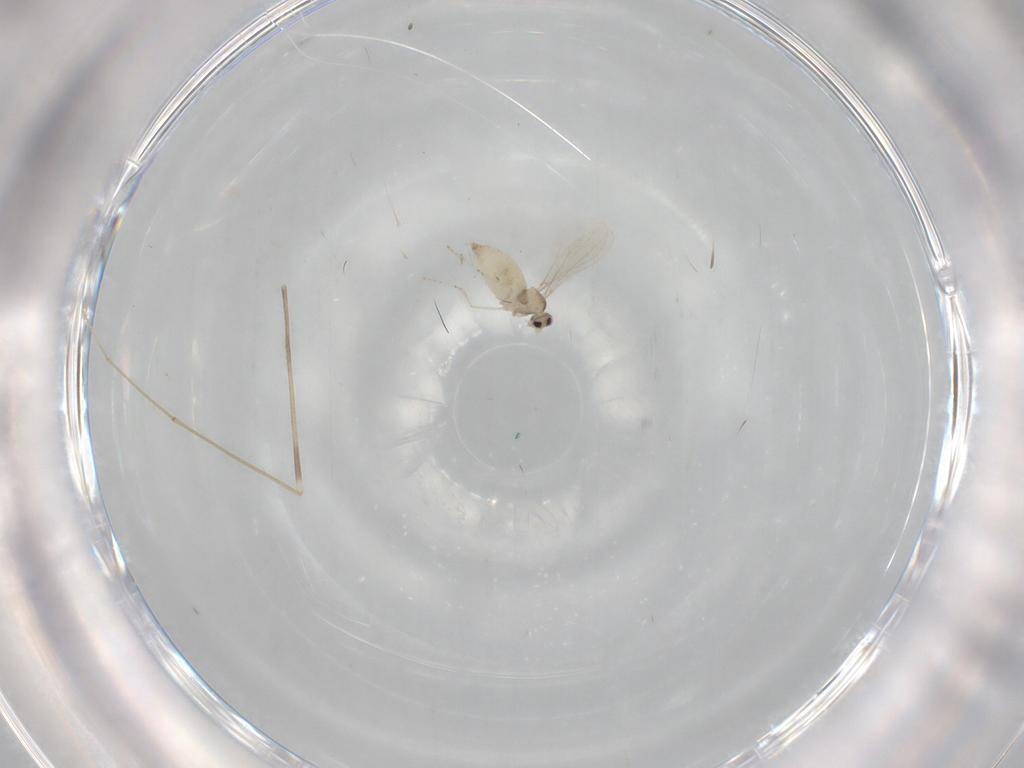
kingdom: Animalia
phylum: Arthropoda
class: Insecta
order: Diptera
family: Cecidomyiidae
